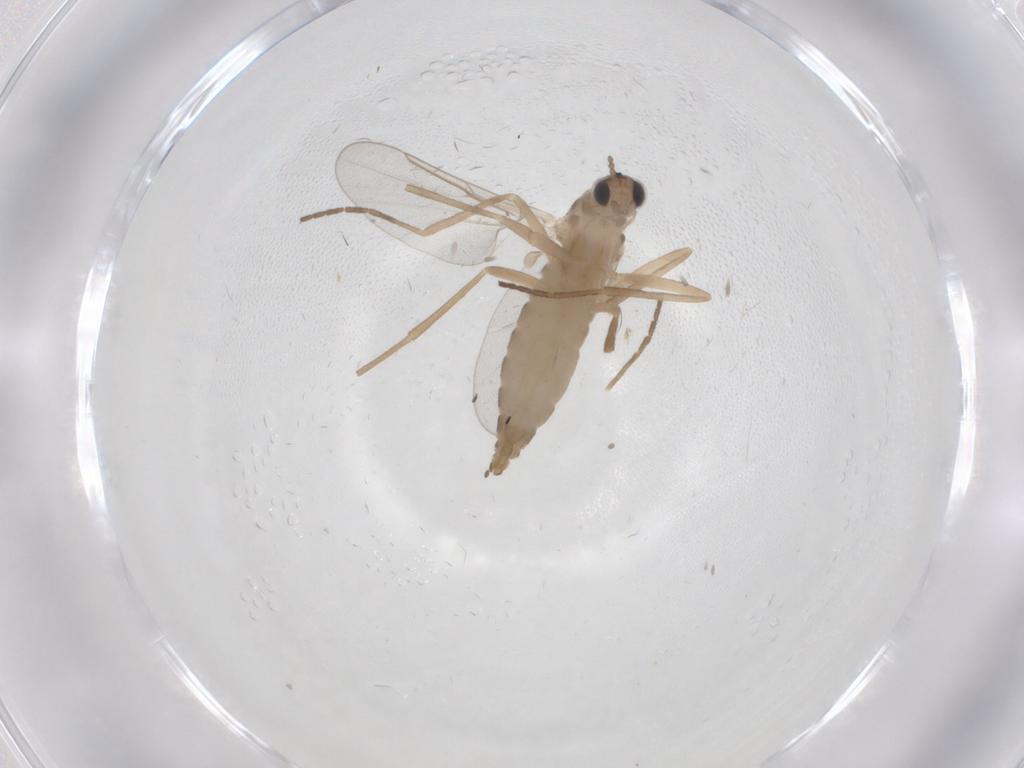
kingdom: Animalia
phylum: Arthropoda
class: Insecta
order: Diptera
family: Cecidomyiidae
